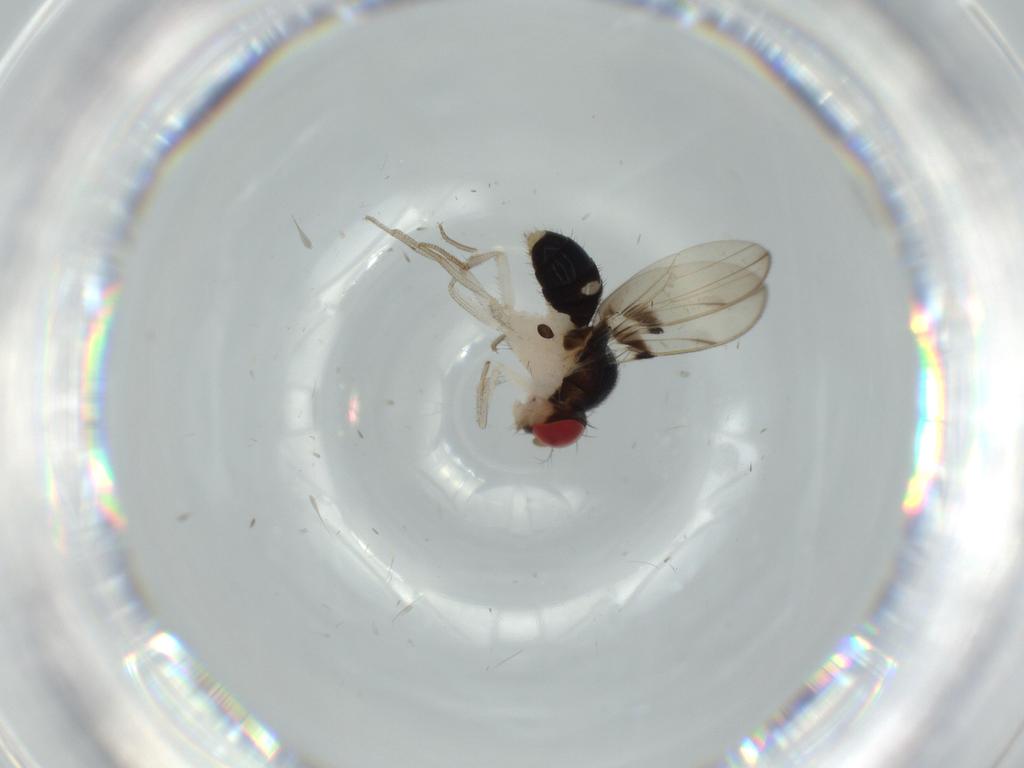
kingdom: Animalia
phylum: Arthropoda
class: Insecta
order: Diptera
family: Drosophilidae
